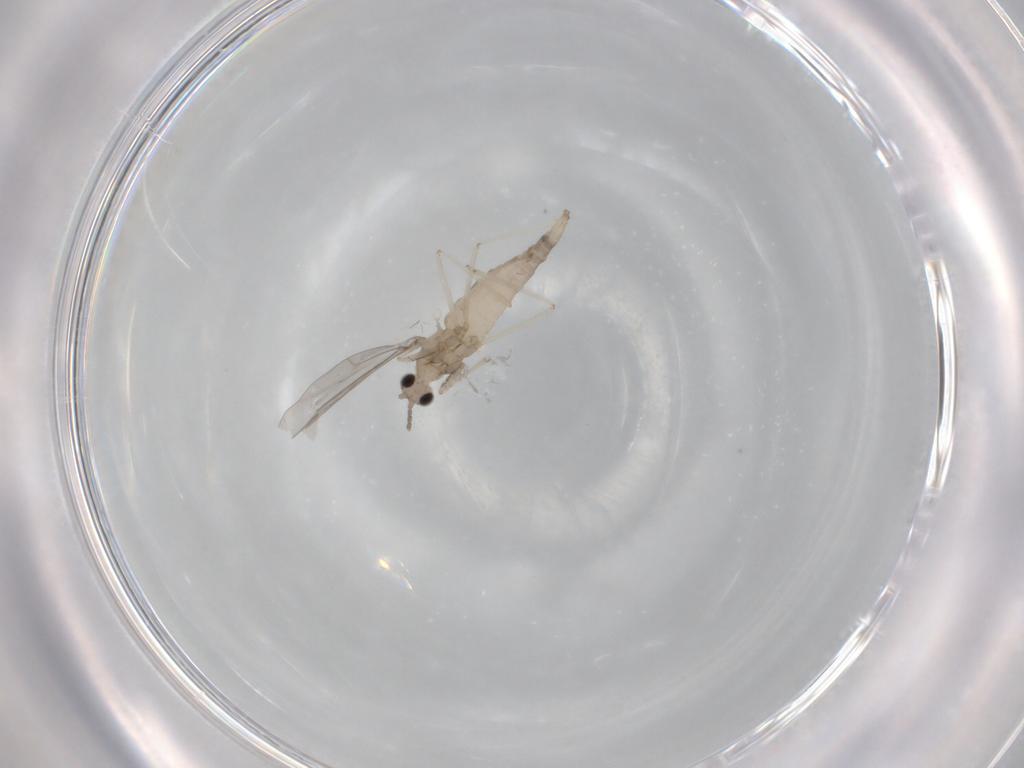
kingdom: Animalia
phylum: Arthropoda
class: Insecta
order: Diptera
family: Cecidomyiidae
